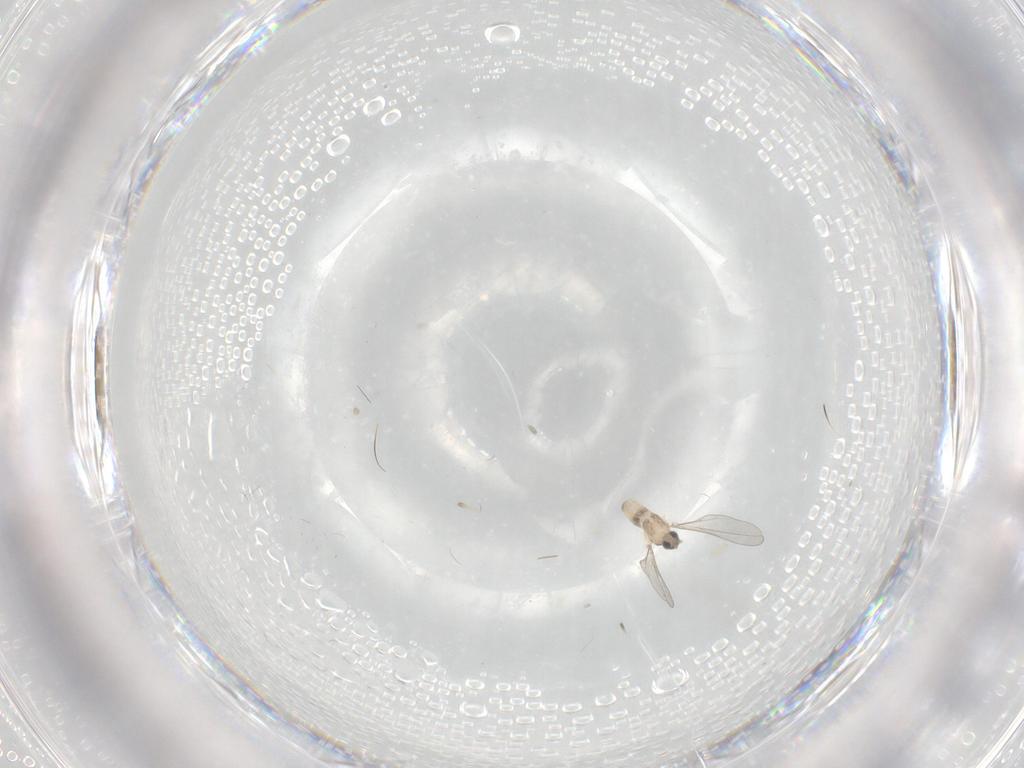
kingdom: Animalia
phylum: Arthropoda
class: Insecta
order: Diptera
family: Cecidomyiidae
